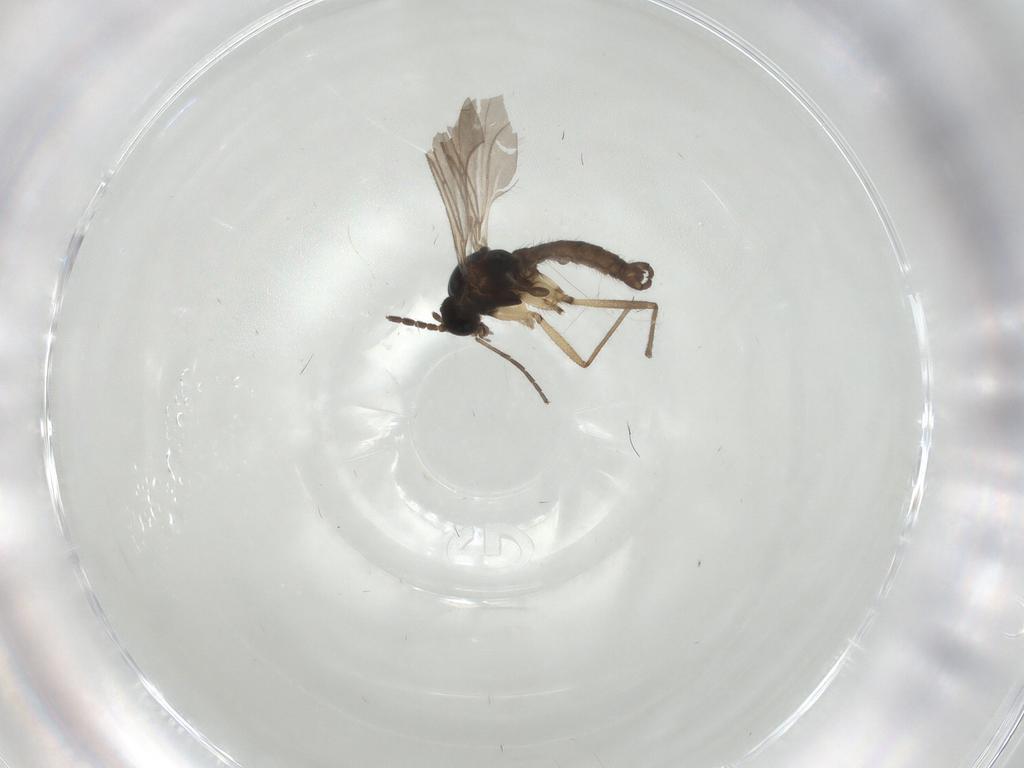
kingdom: Animalia
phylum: Arthropoda
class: Insecta
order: Diptera
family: Sciaridae
